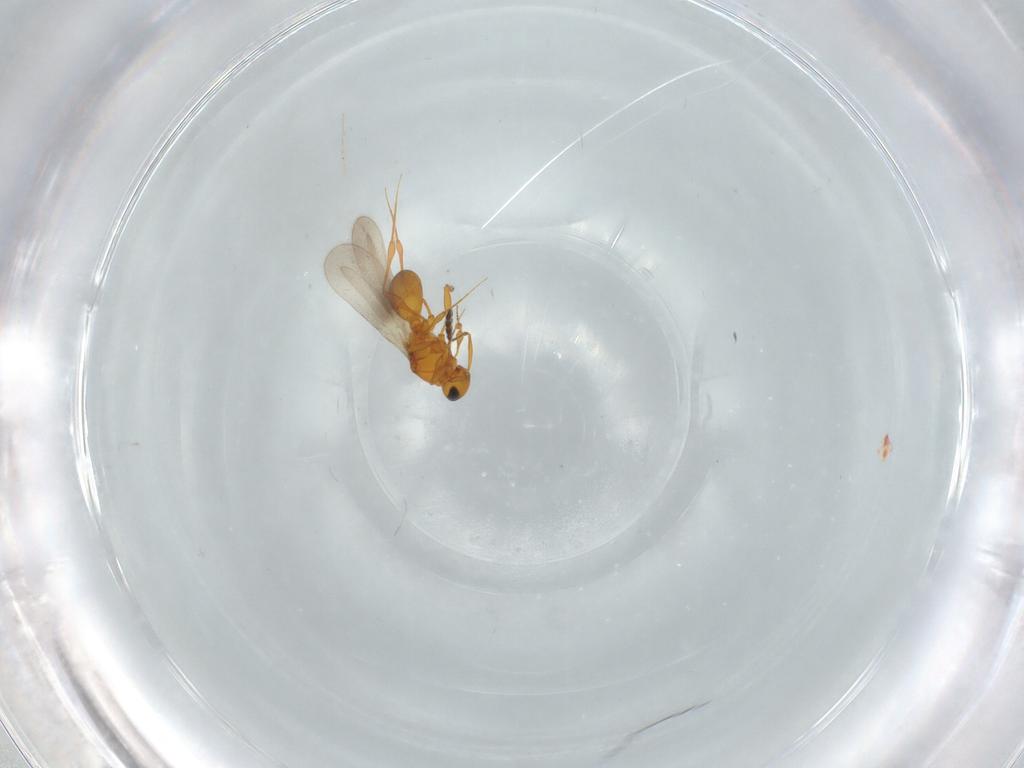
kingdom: Animalia
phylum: Arthropoda
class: Insecta
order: Hymenoptera
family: Platygastridae
